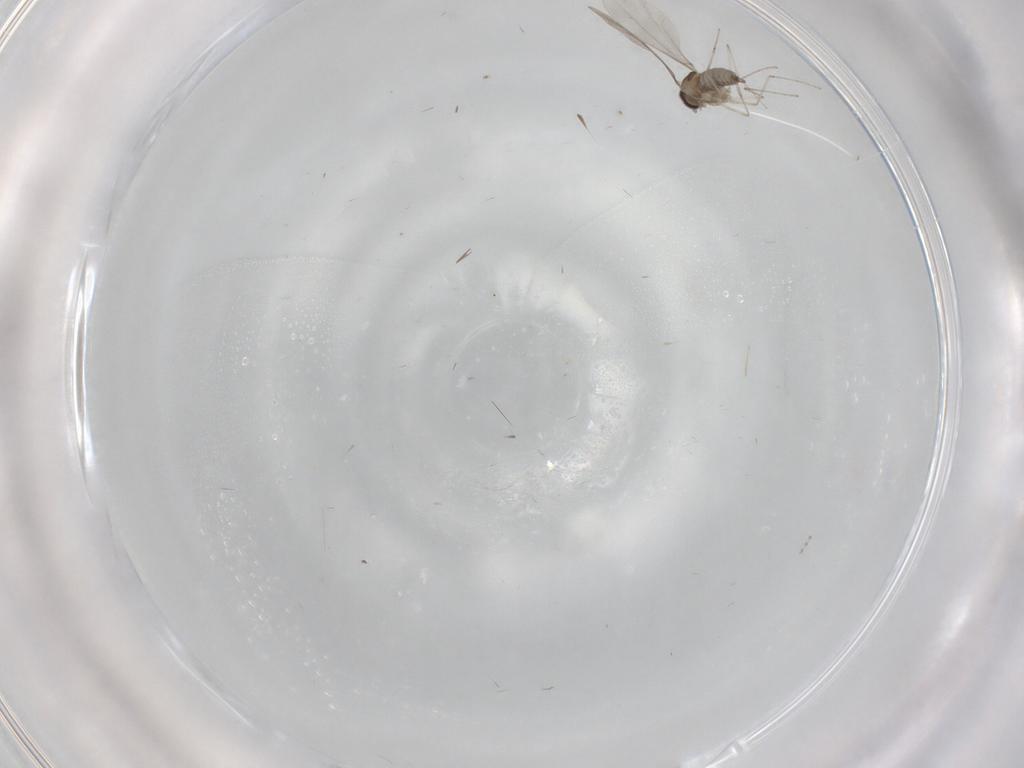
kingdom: Animalia
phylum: Arthropoda
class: Insecta
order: Diptera
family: Cecidomyiidae
